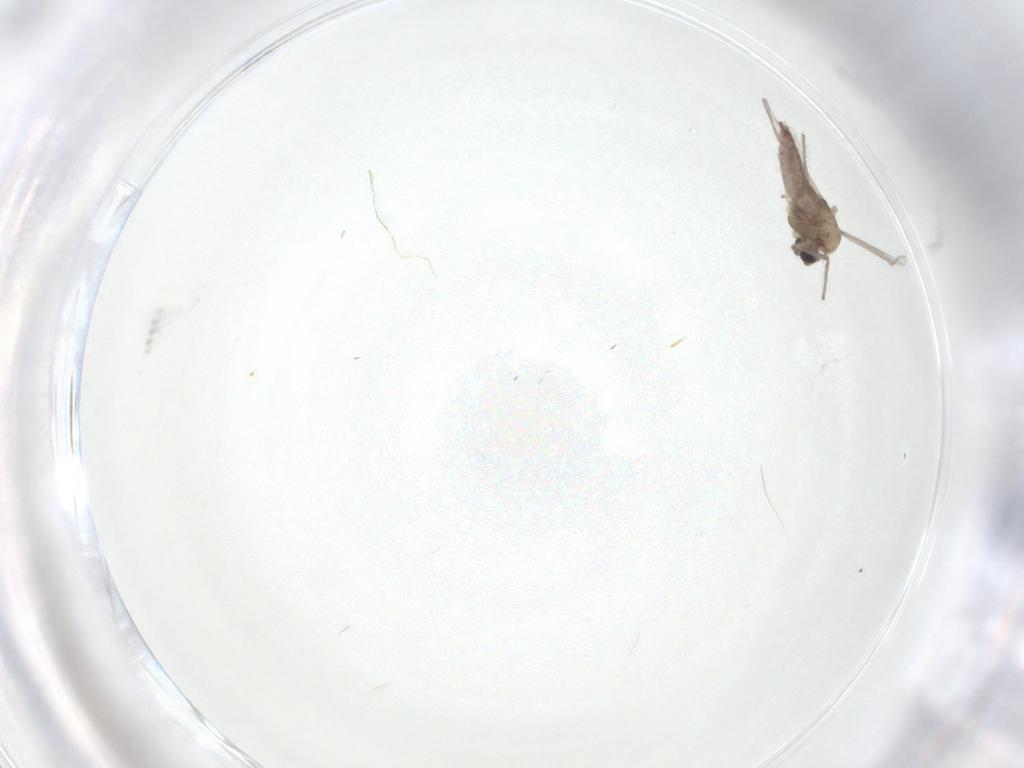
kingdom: Animalia
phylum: Arthropoda
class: Insecta
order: Diptera
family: Chironomidae
